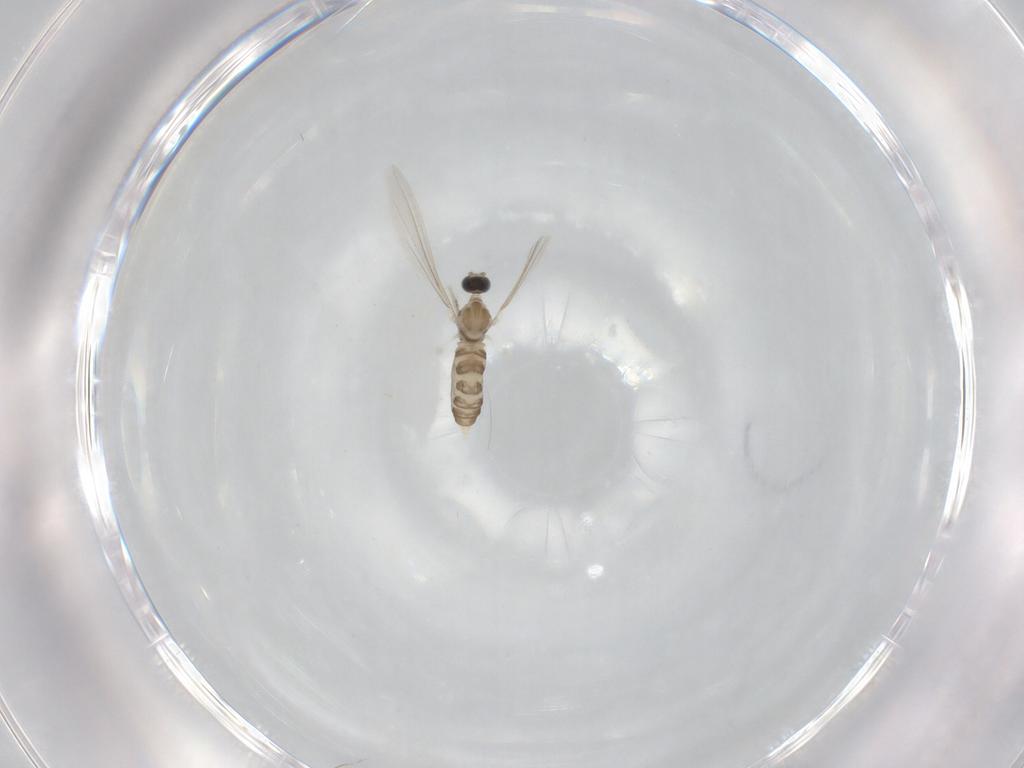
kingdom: Animalia
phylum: Arthropoda
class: Insecta
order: Diptera
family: Cecidomyiidae
